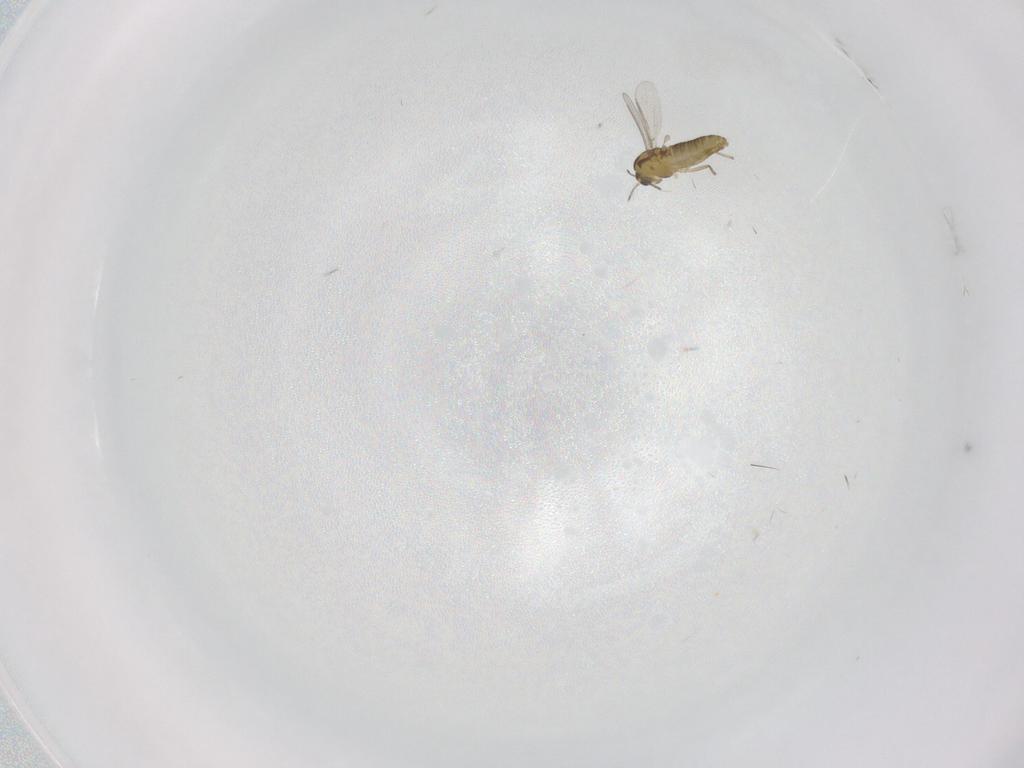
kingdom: Animalia
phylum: Arthropoda
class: Insecta
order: Diptera
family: Chironomidae
